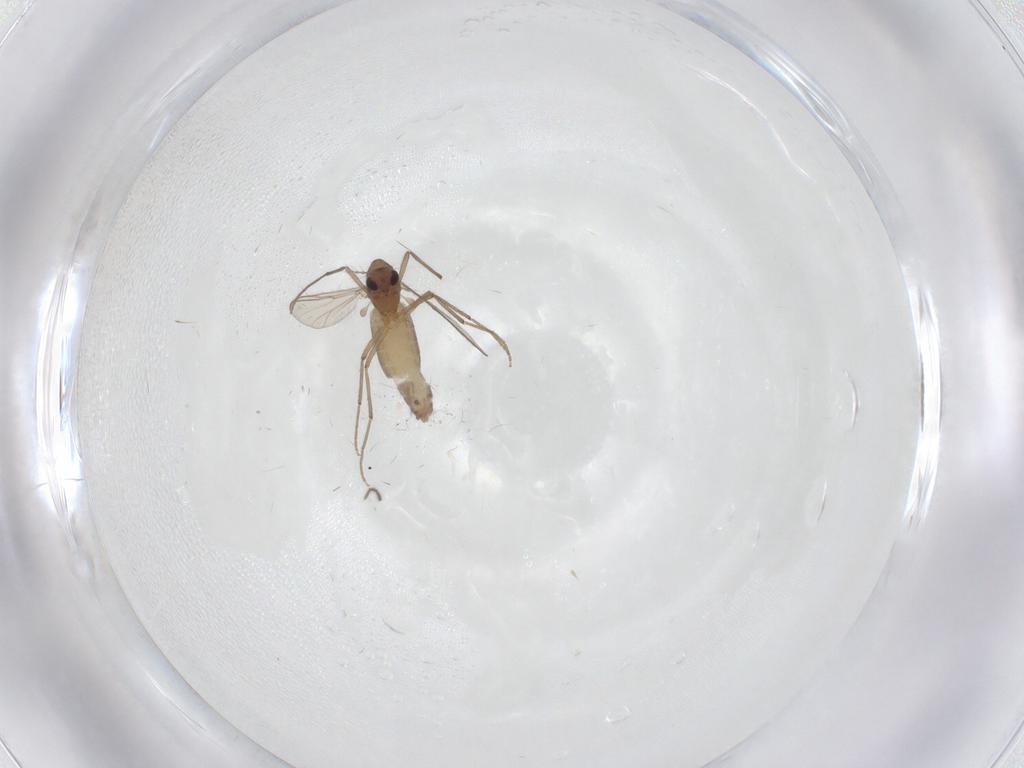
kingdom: Animalia
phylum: Arthropoda
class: Insecta
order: Diptera
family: Chironomidae
